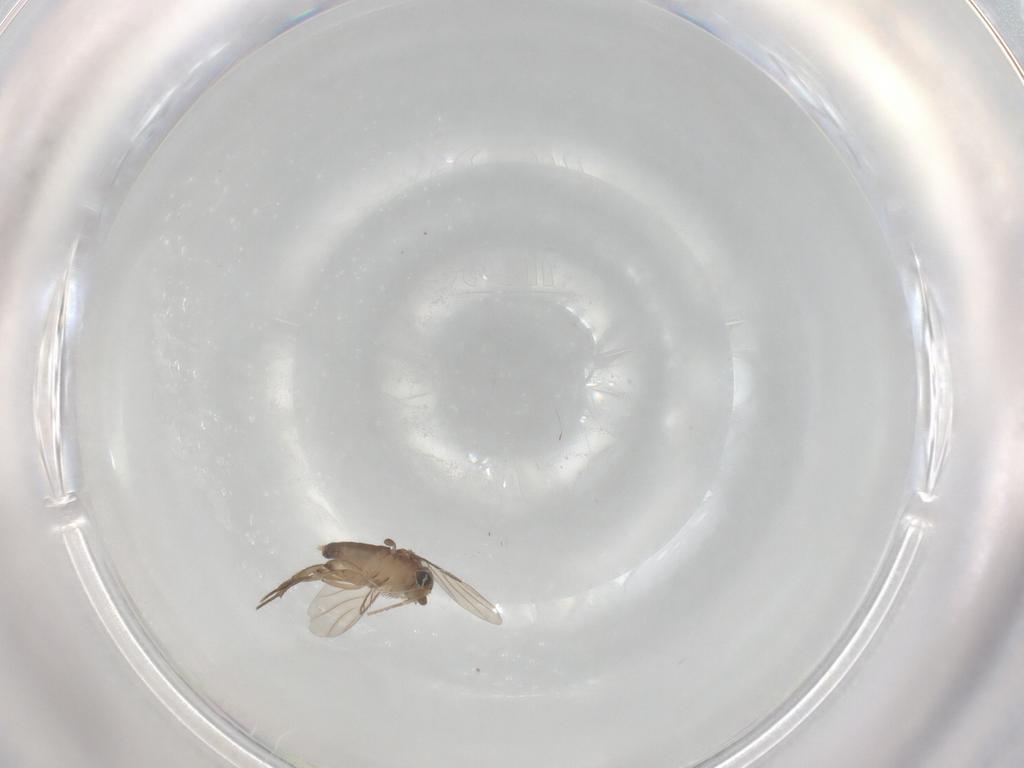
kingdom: Animalia
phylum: Arthropoda
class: Insecta
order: Diptera
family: Phoridae
